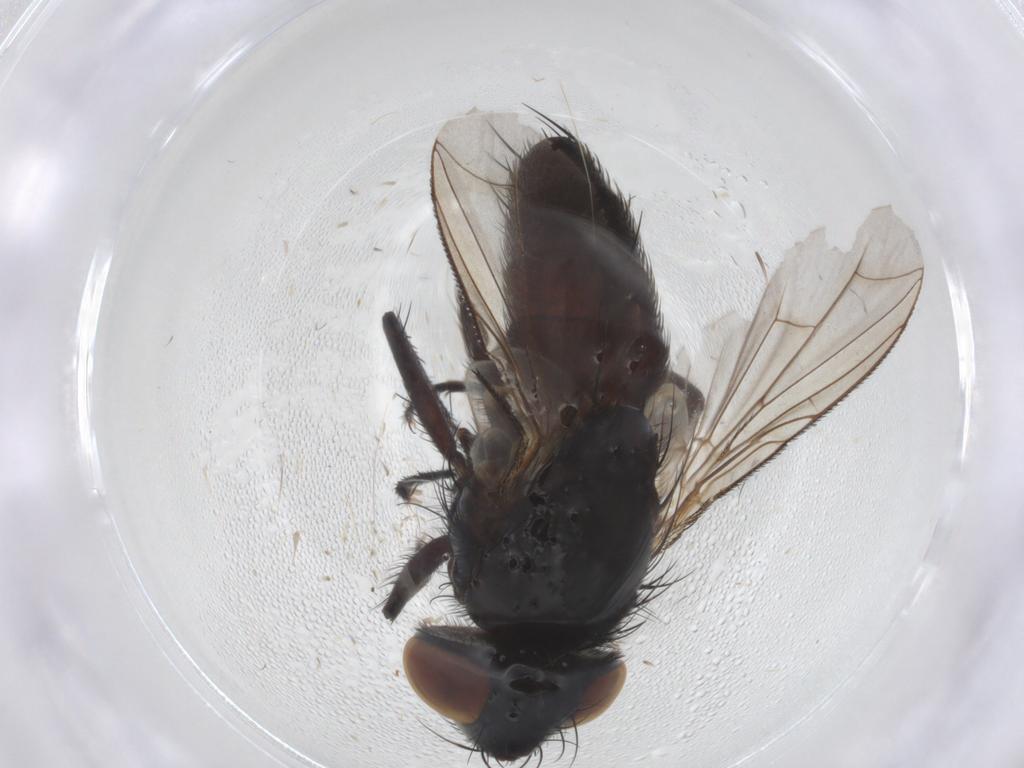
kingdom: Animalia
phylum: Arthropoda
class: Insecta
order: Diptera
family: Sarcophagidae
